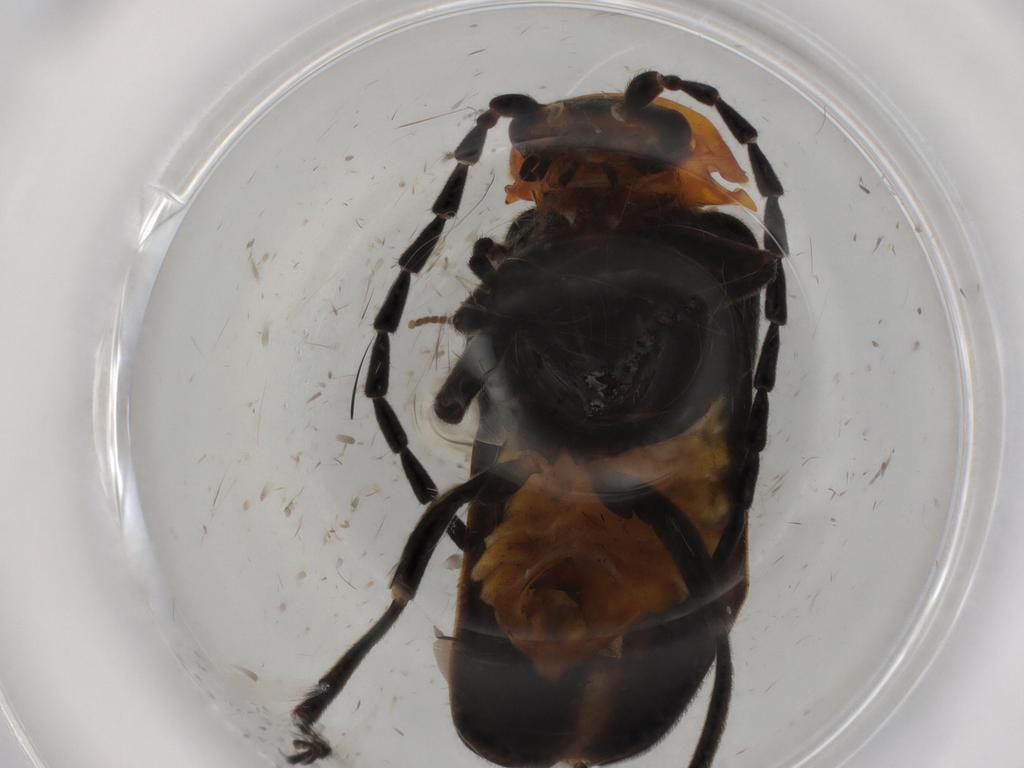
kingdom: Animalia
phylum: Arthropoda
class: Insecta
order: Coleoptera
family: Cantharidae
